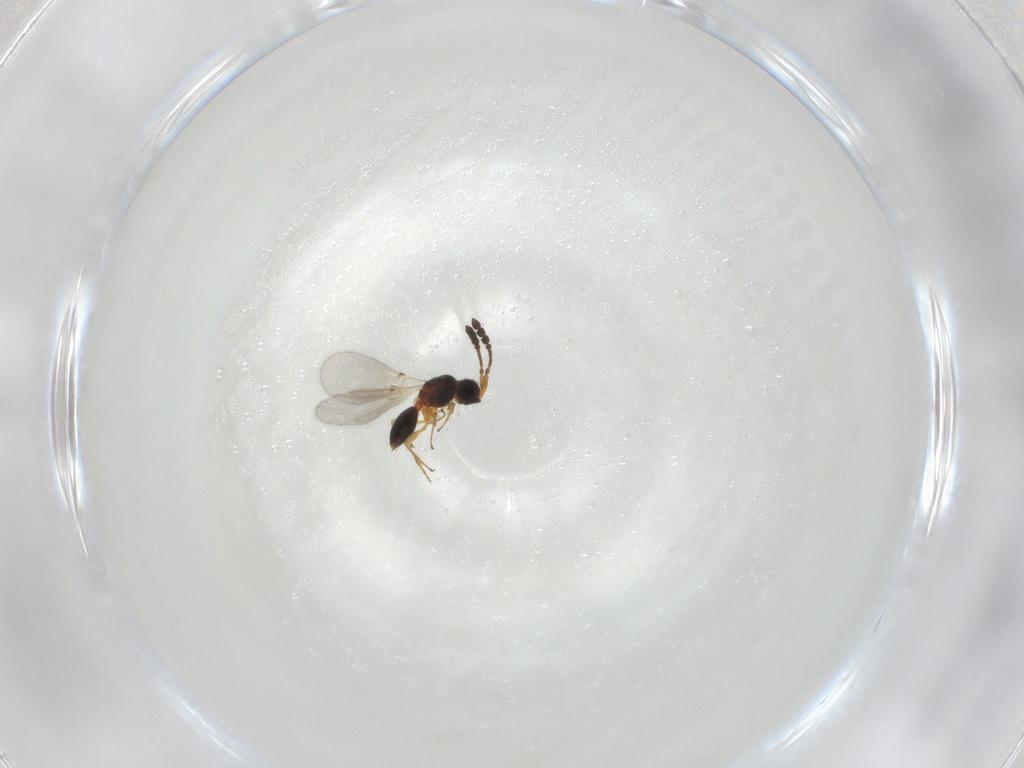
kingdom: Animalia
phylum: Arthropoda
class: Insecta
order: Hymenoptera
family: Diapriidae
